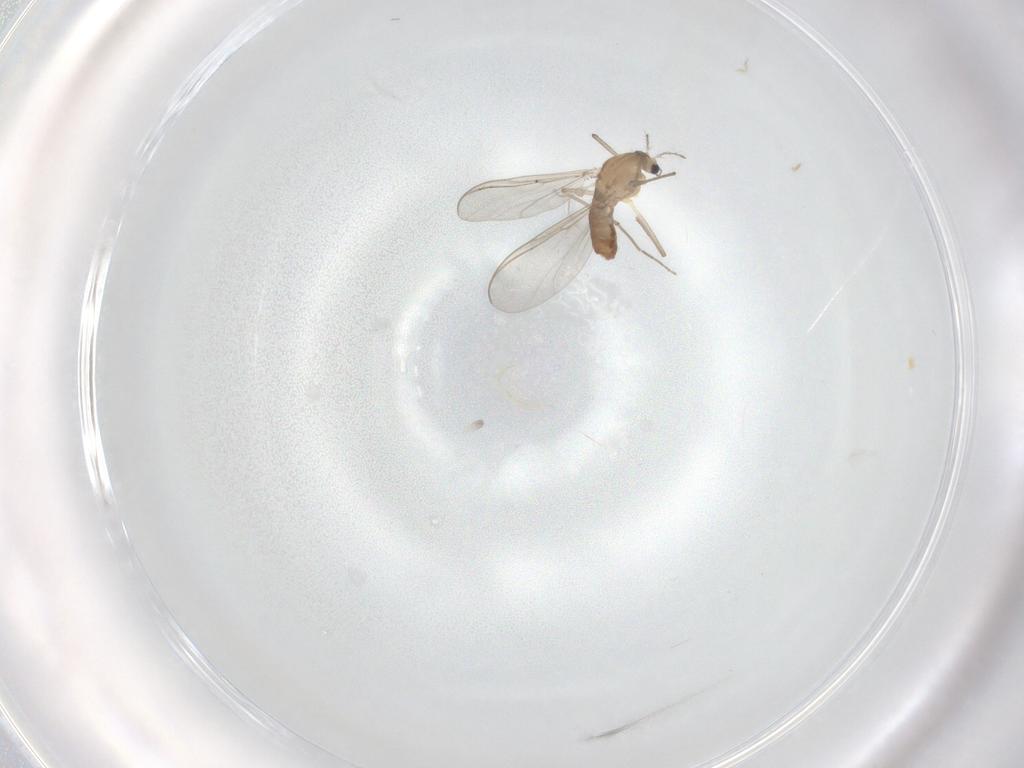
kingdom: Animalia
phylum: Arthropoda
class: Insecta
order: Diptera
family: Chironomidae
